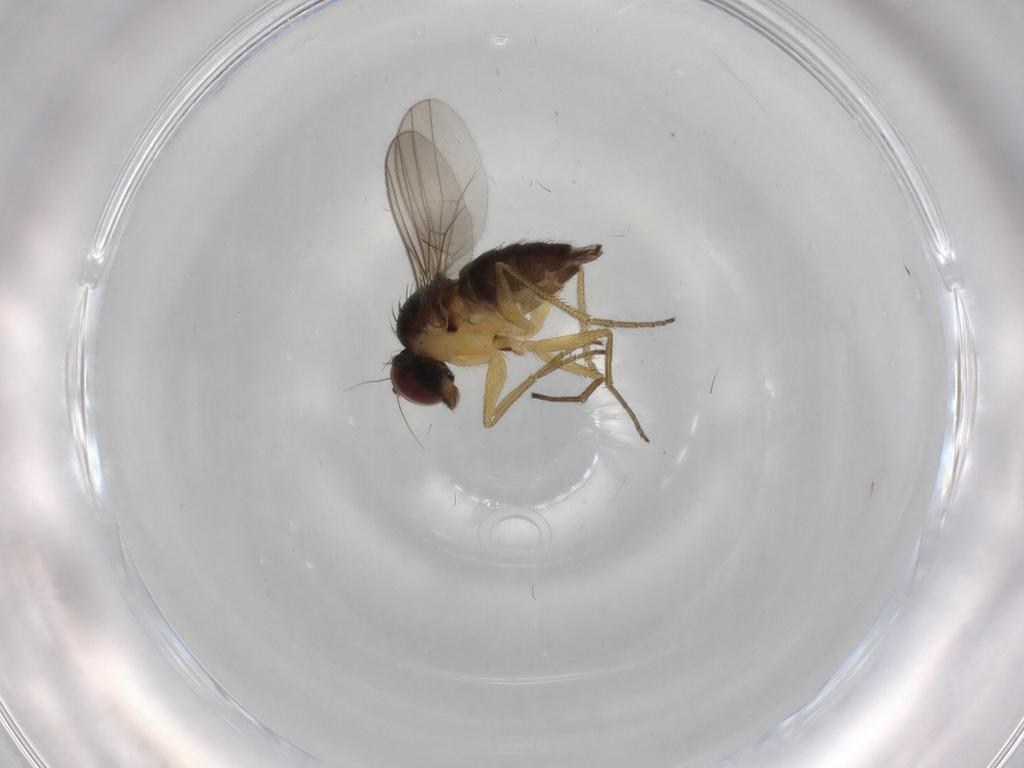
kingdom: Animalia
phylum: Arthropoda
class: Insecta
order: Diptera
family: Dolichopodidae
